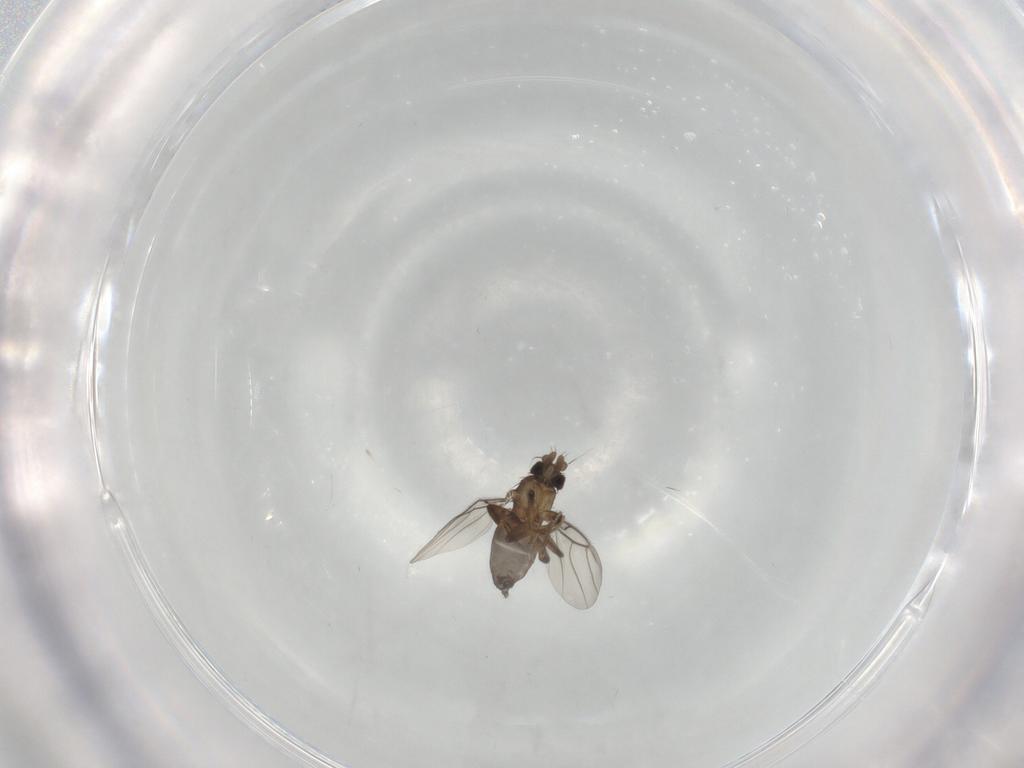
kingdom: Animalia
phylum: Arthropoda
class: Insecta
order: Diptera
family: Phoridae
